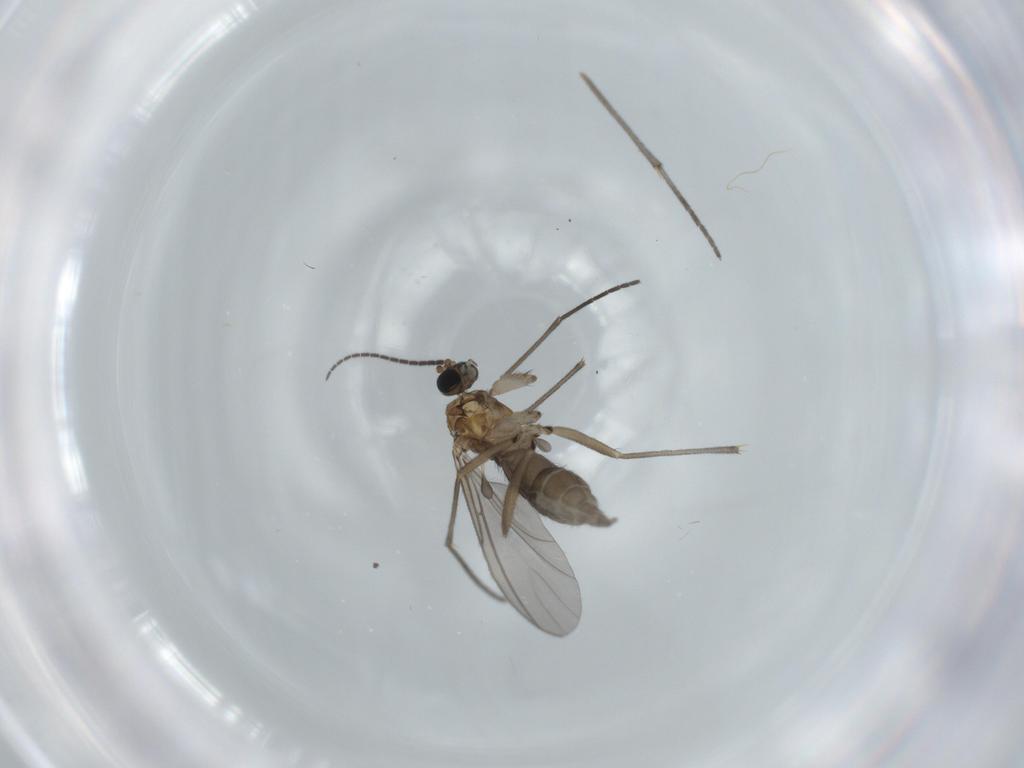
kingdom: Animalia
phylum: Arthropoda
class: Insecta
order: Diptera
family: Sciaridae
